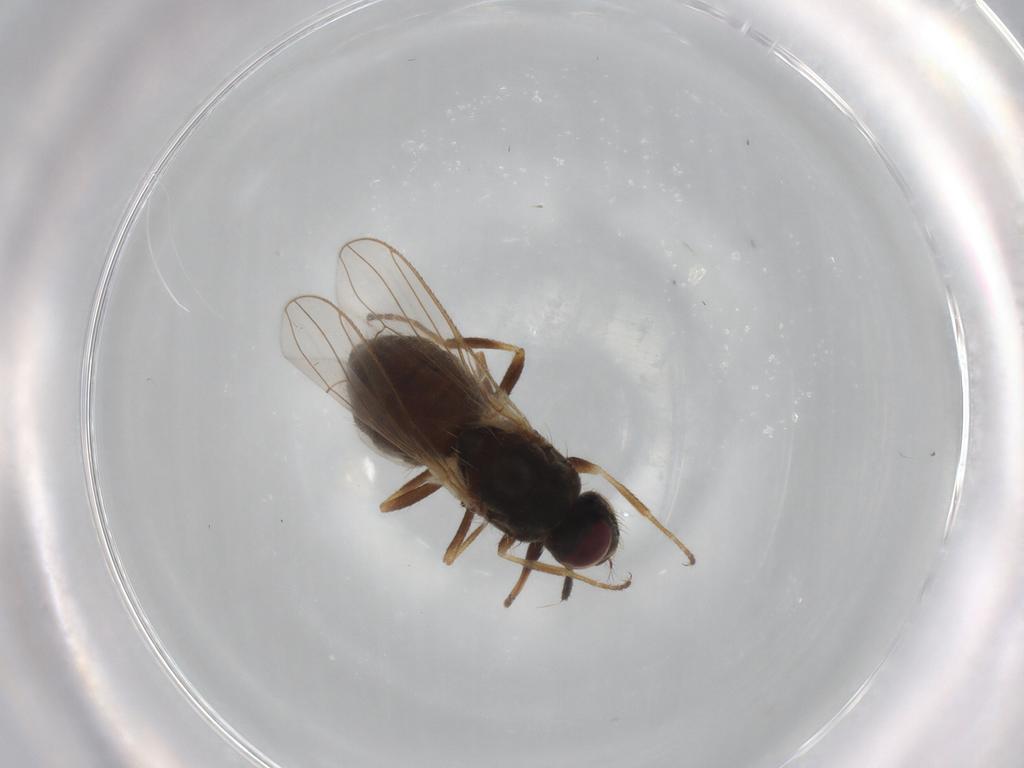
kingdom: Animalia
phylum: Arthropoda
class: Insecta
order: Diptera
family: Muscidae
